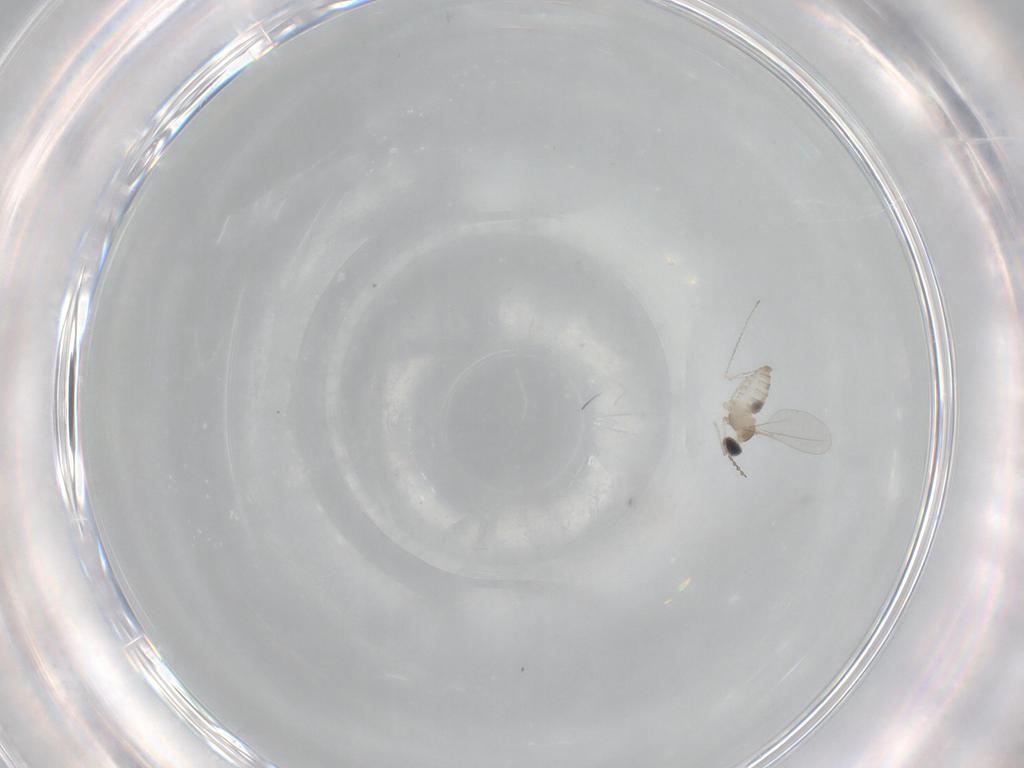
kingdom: Animalia
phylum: Arthropoda
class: Insecta
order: Diptera
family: Cecidomyiidae
